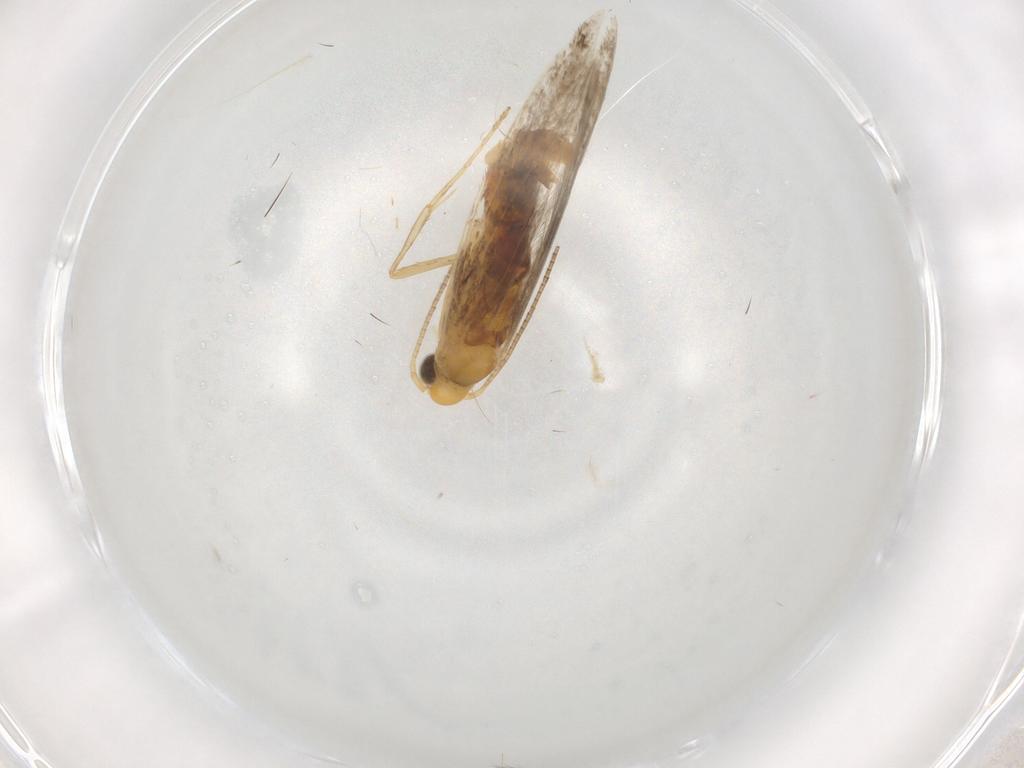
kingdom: Animalia
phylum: Arthropoda
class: Insecta
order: Lepidoptera
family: Gracillariidae
